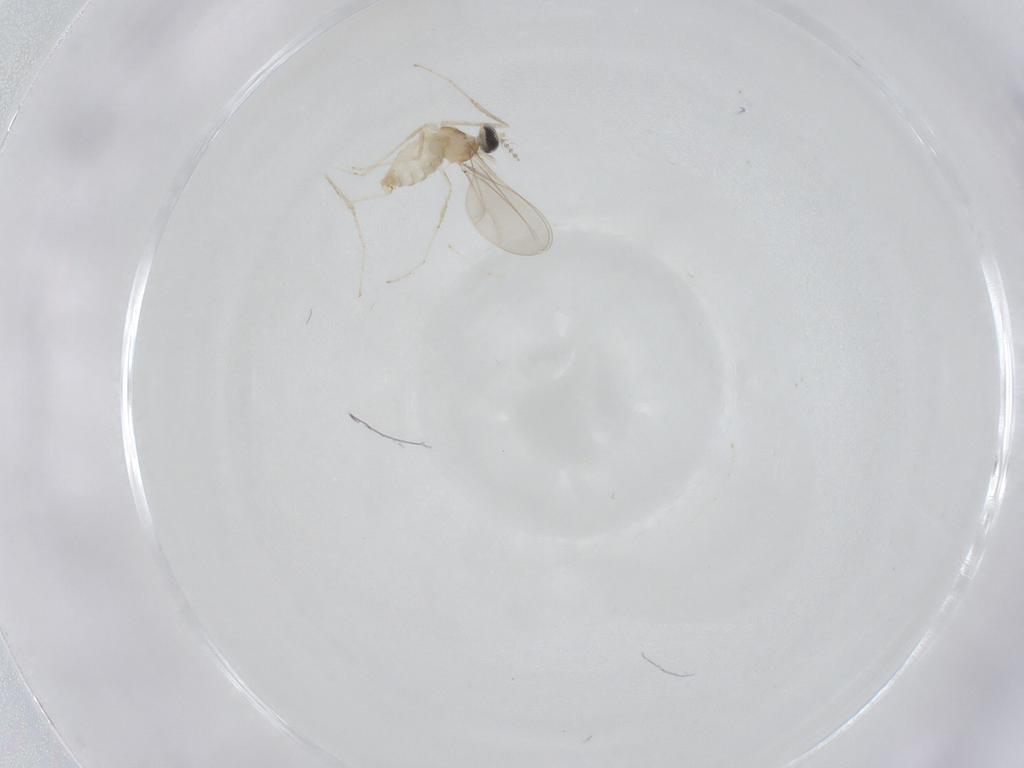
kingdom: Animalia
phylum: Arthropoda
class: Insecta
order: Diptera
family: Cecidomyiidae
